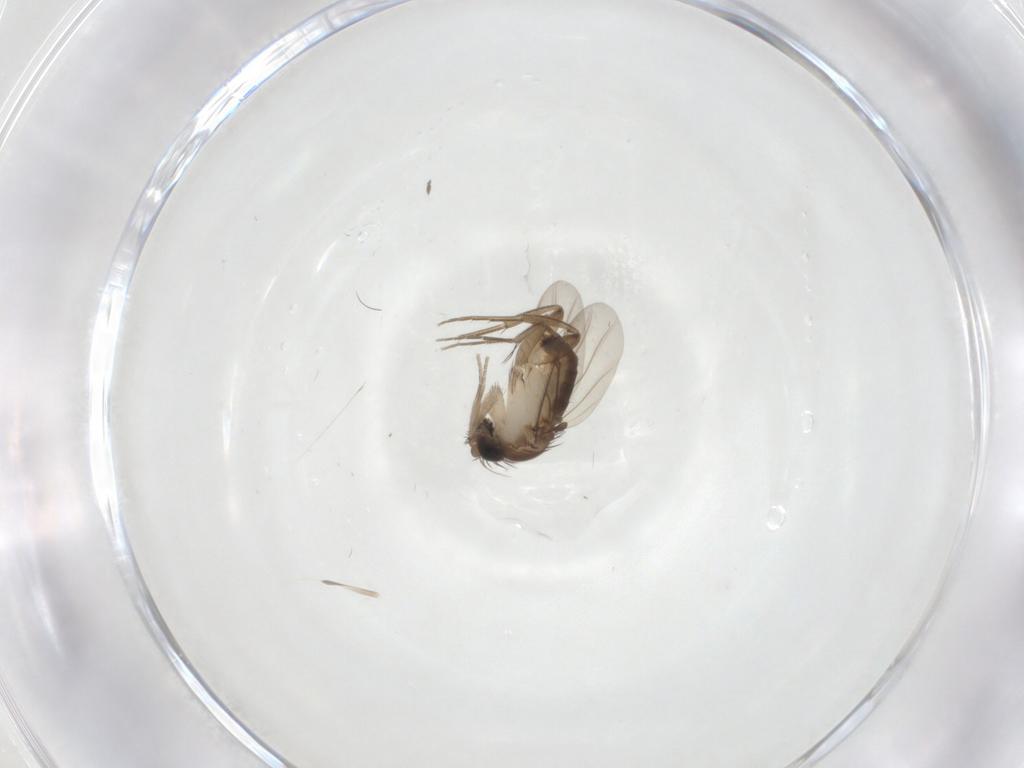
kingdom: Animalia
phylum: Arthropoda
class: Insecta
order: Diptera
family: Phoridae
